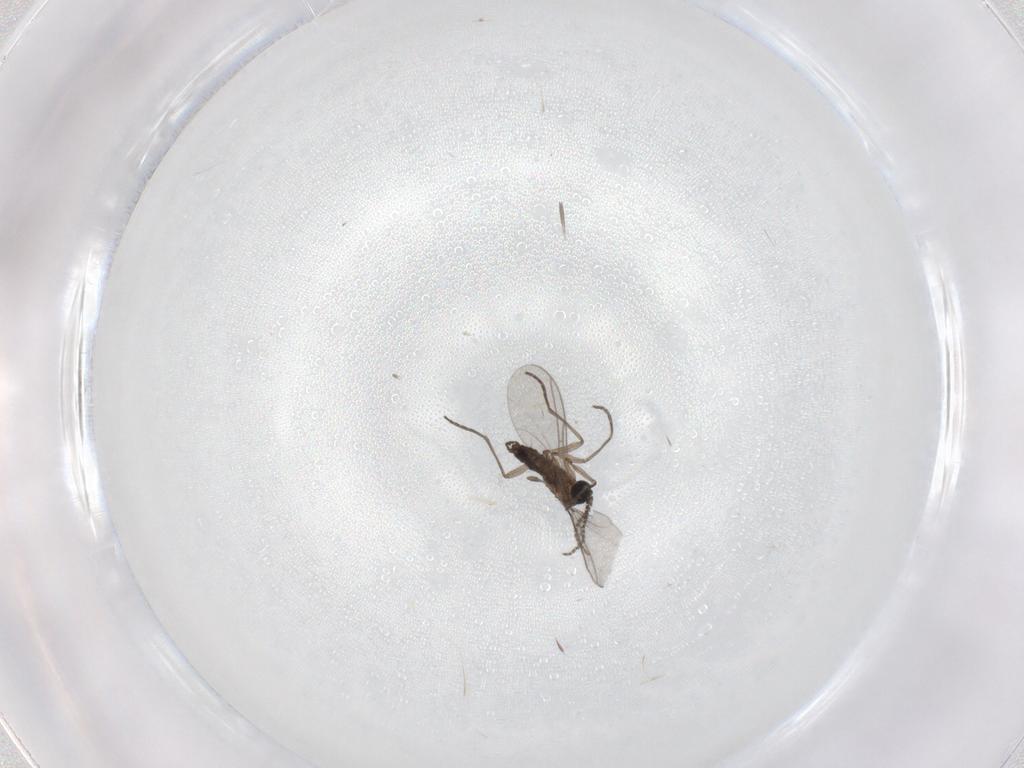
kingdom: Animalia
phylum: Arthropoda
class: Insecta
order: Diptera
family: Sciaridae
